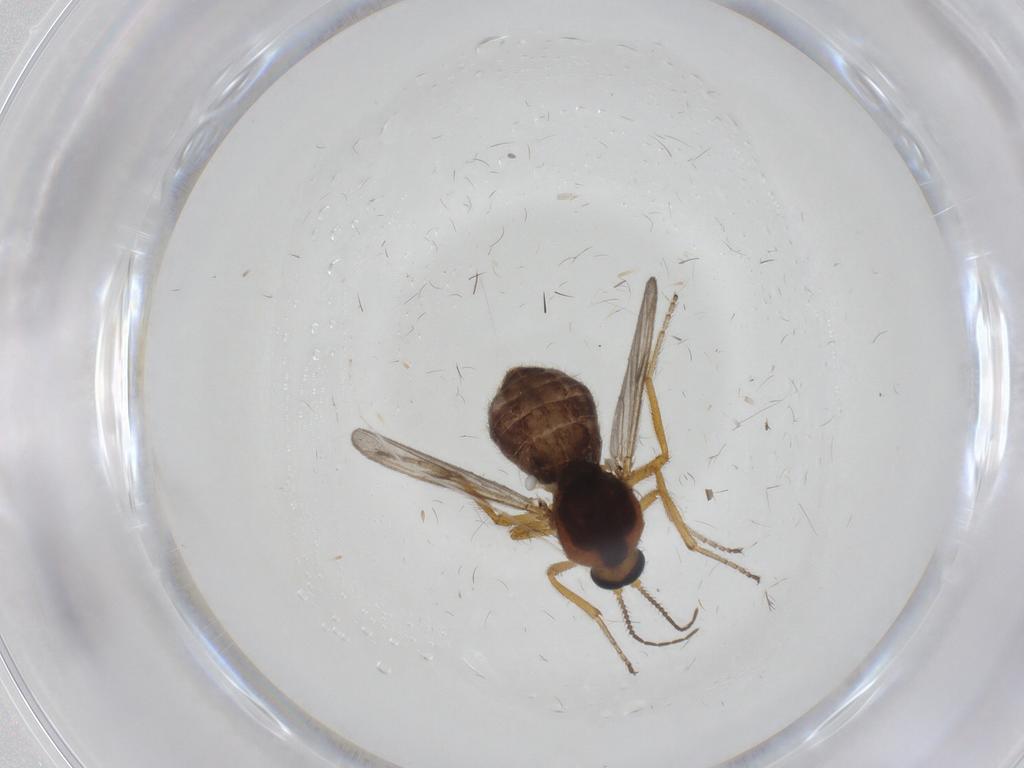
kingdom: Animalia
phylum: Arthropoda
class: Insecta
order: Diptera
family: Ceratopogonidae
